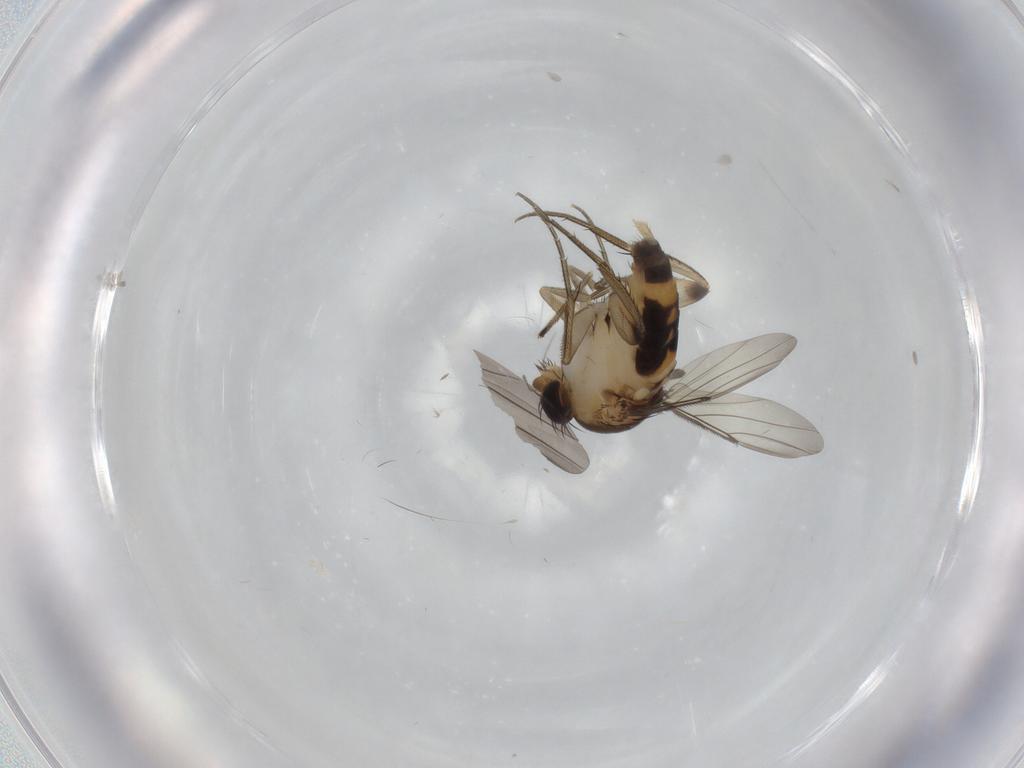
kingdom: Animalia
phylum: Arthropoda
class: Insecta
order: Diptera
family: Phoridae
